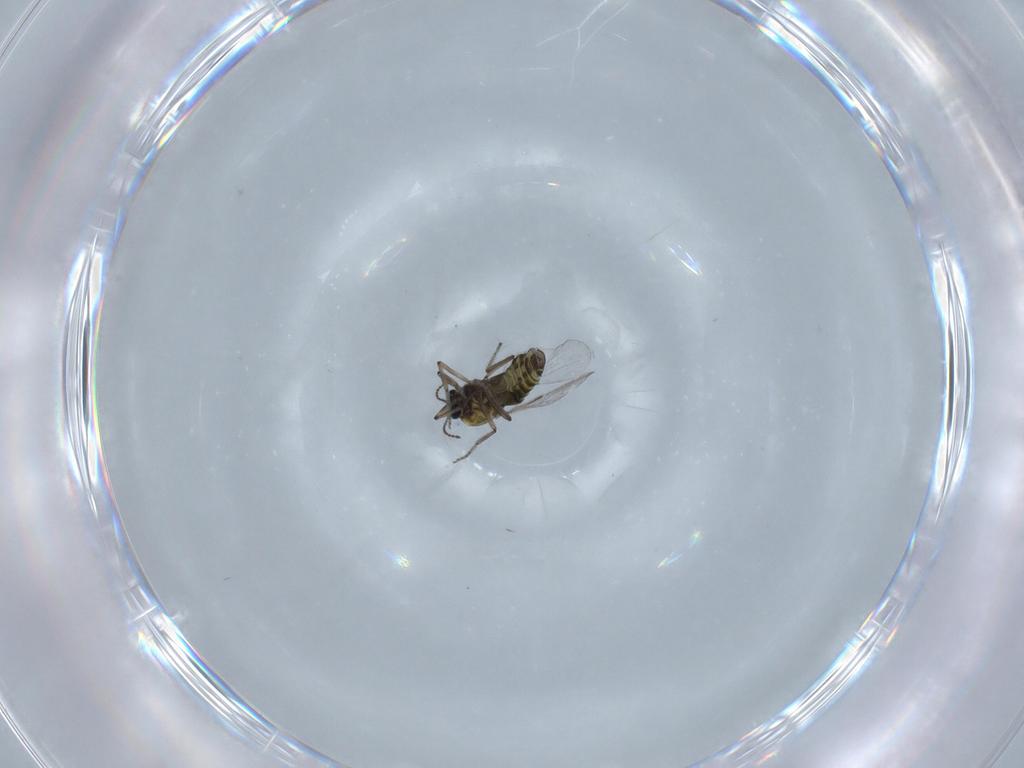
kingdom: Animalia
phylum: Arthropoda
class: Insecta
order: Diptera
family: Ceratopogonidae
